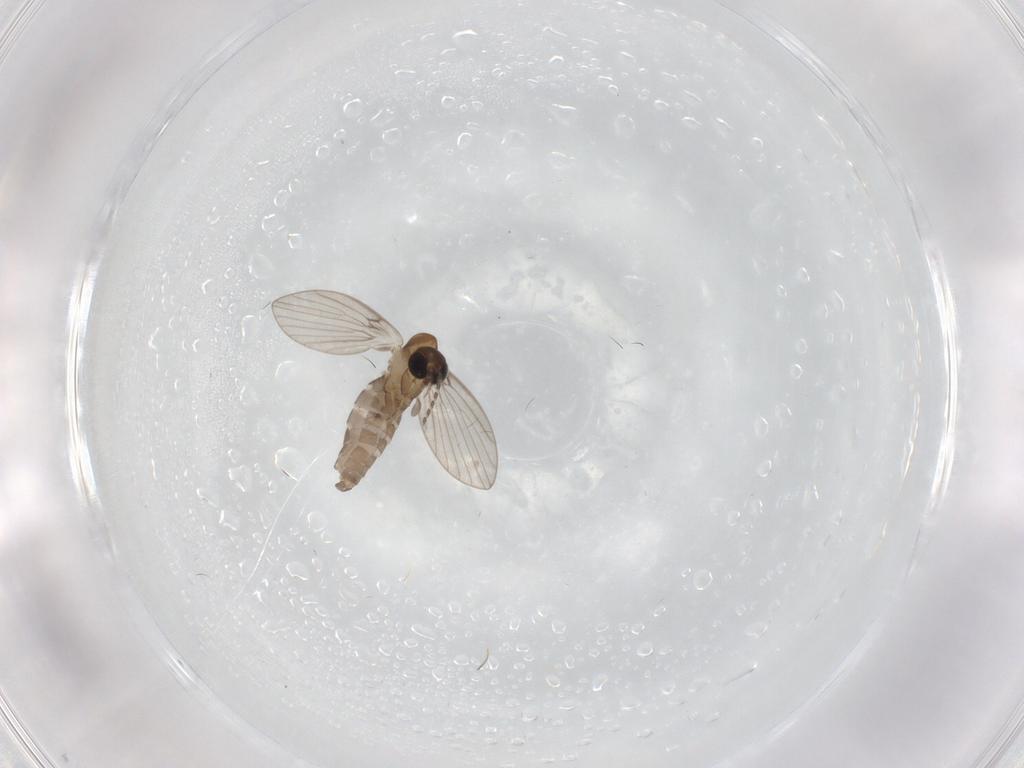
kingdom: Animalia
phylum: Arthropoda
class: Insecta
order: Diptera
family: Psychodidae
